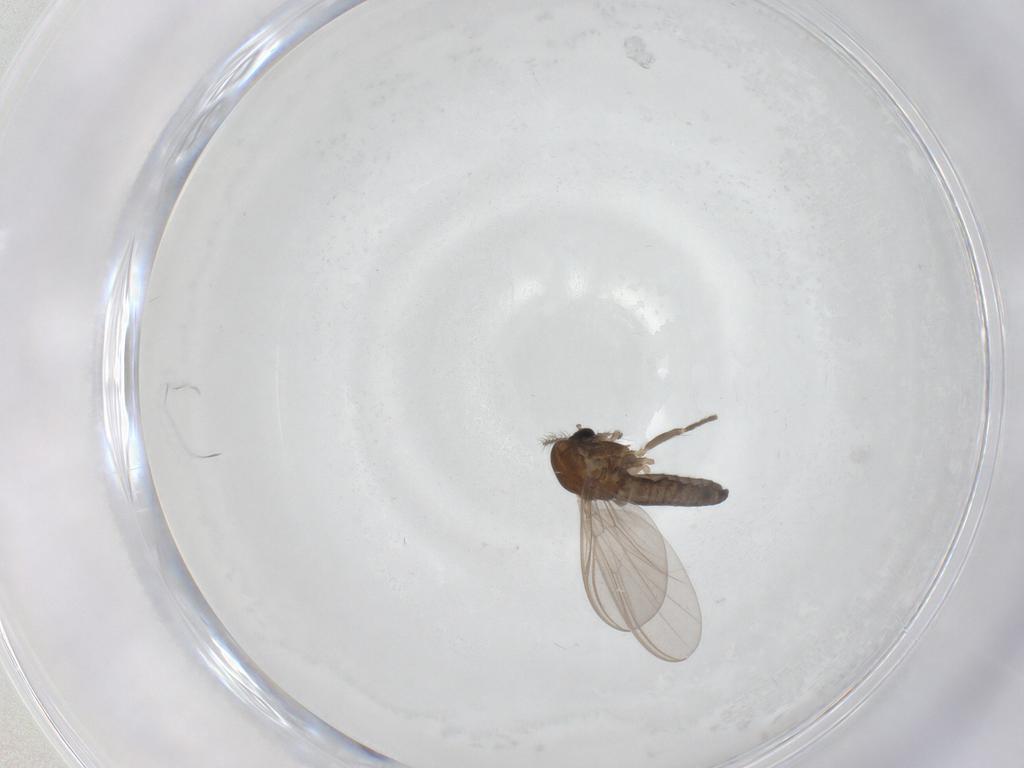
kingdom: Animalia
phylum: Arthropoda
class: Insecta
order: Diptera
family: Chironomidae
